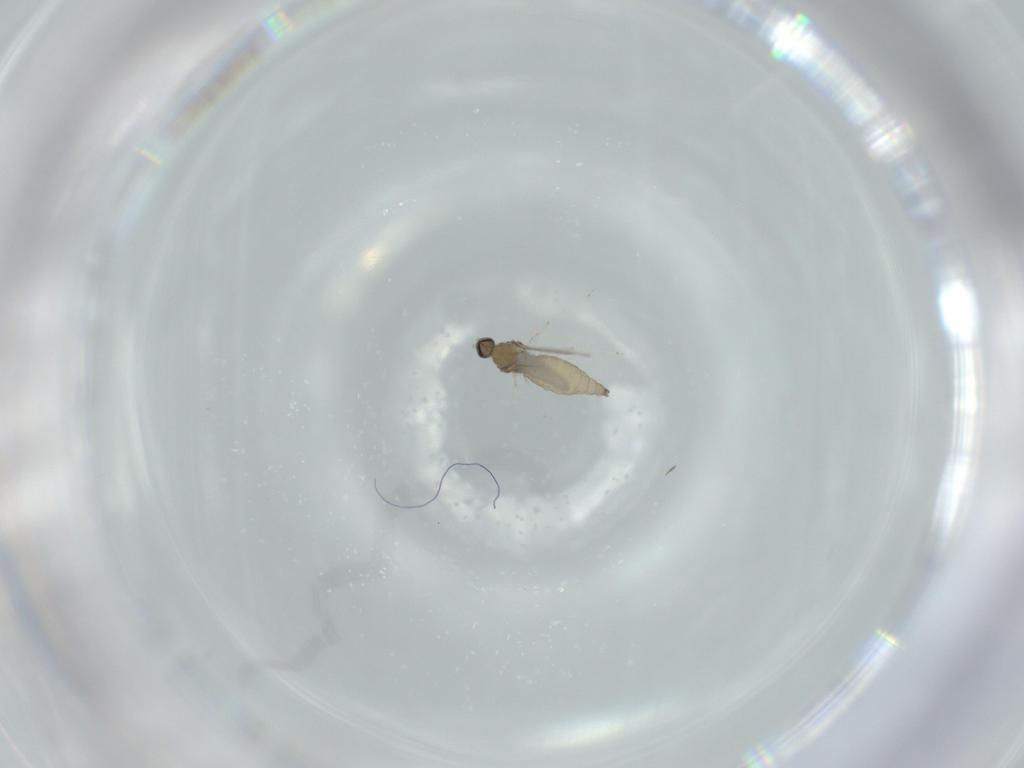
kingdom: Animalia
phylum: Arthropoda
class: Insecta
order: Diptera
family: Cecidomyiidae
